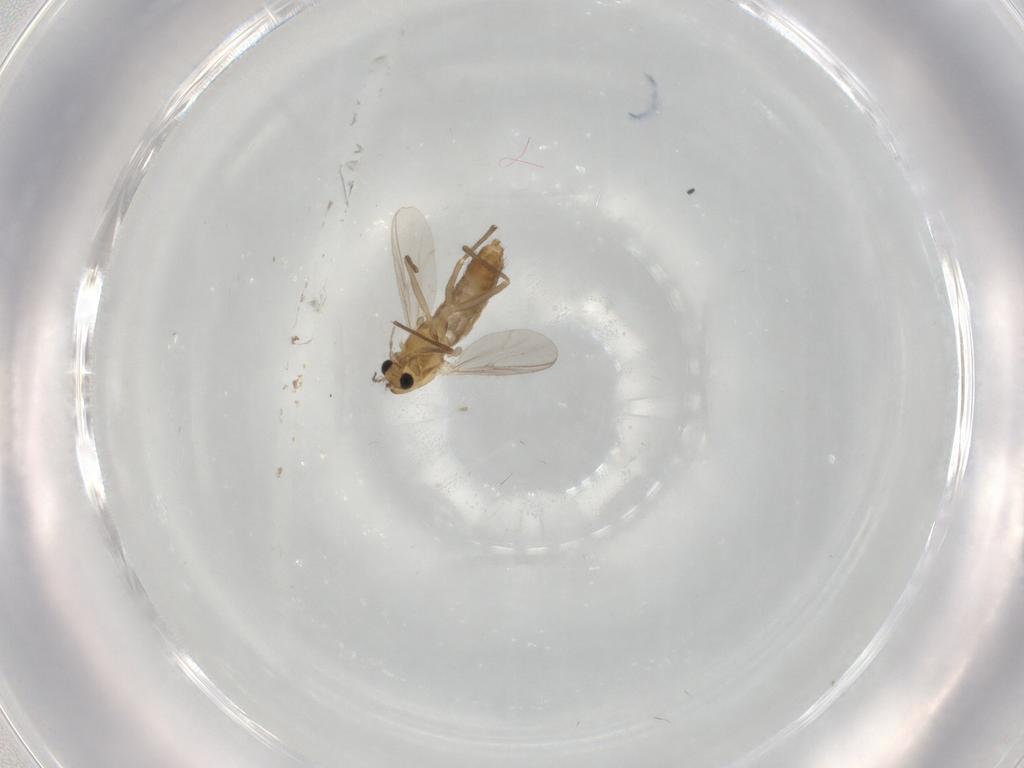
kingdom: Animalia
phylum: Arthropoda
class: Insecta
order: Diptera
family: Chironomidae
